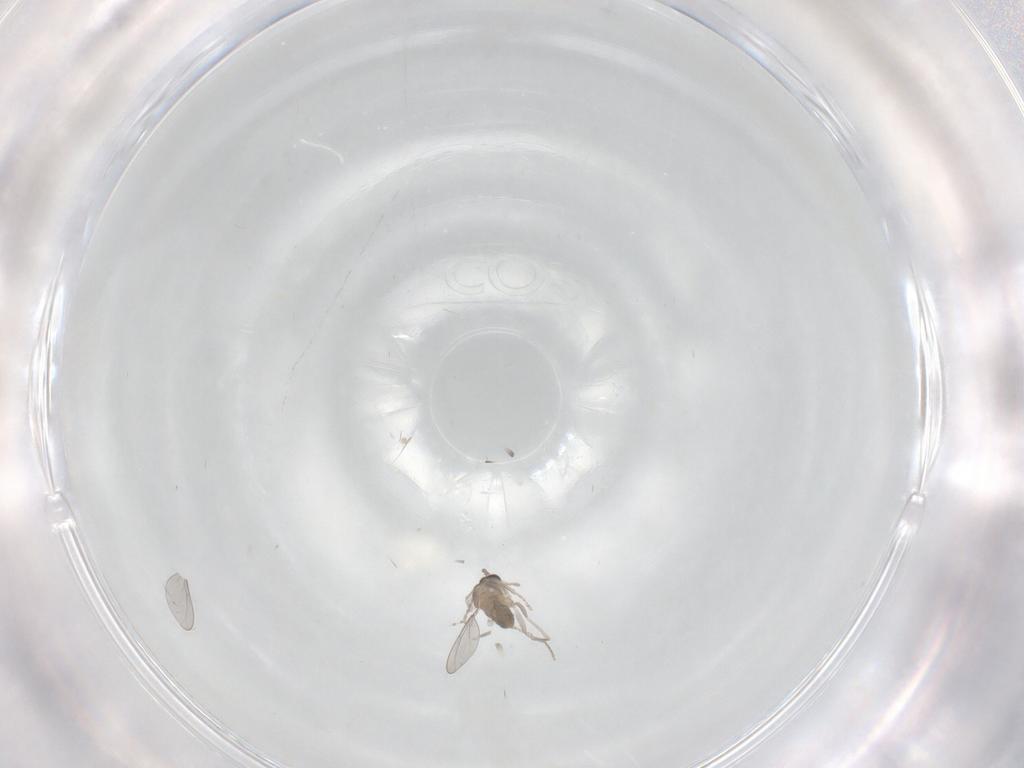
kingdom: Animalia
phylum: Arthropoda
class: Insecta
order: Diptera
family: Cecidomyiidae
